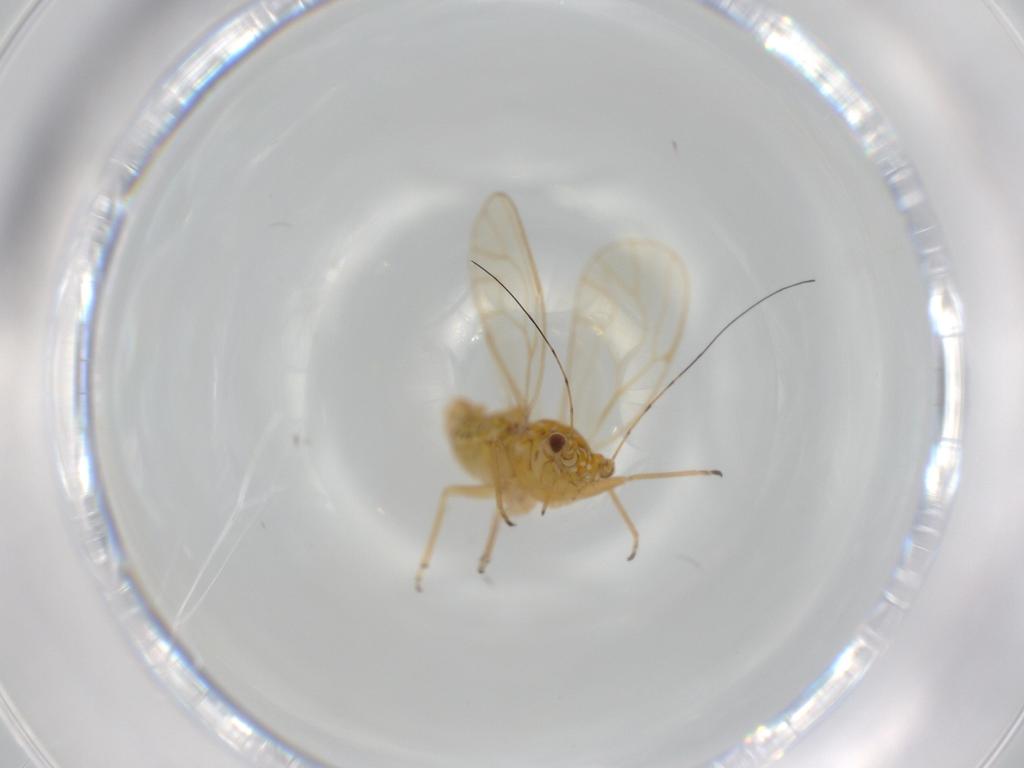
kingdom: Animalia
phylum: Arthropoda
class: Insecta
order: Hemiptera
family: Psyllidae
